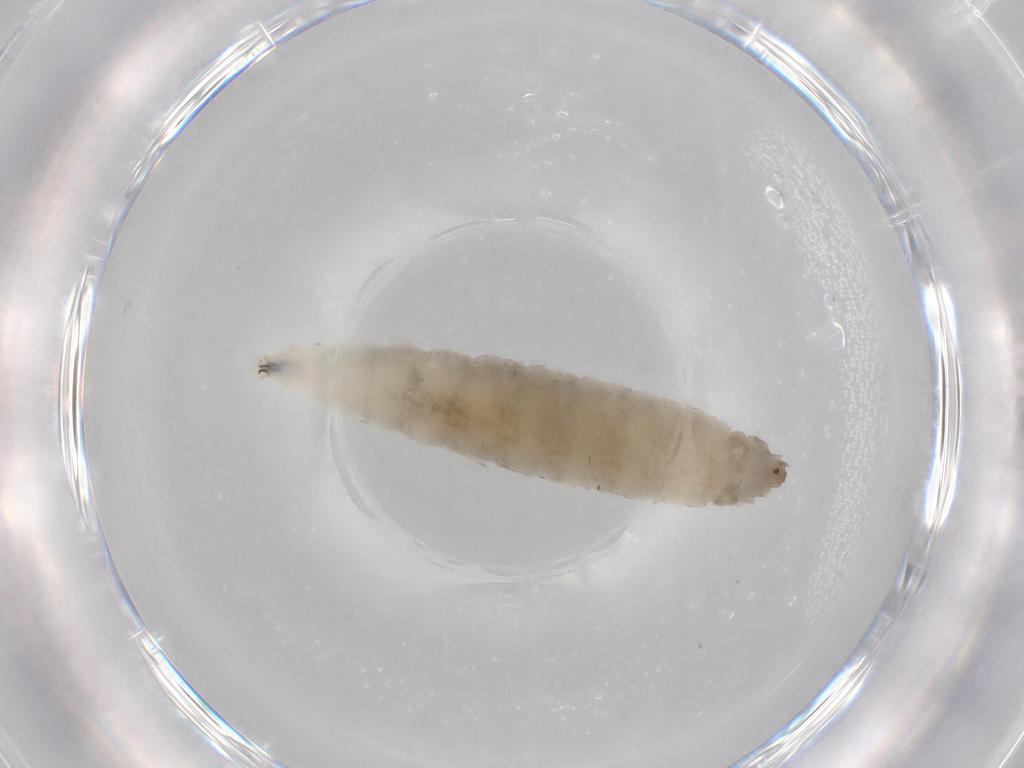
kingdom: Animalia
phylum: Arthropoda
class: Insecta
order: Diptera
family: Drosophilidae
